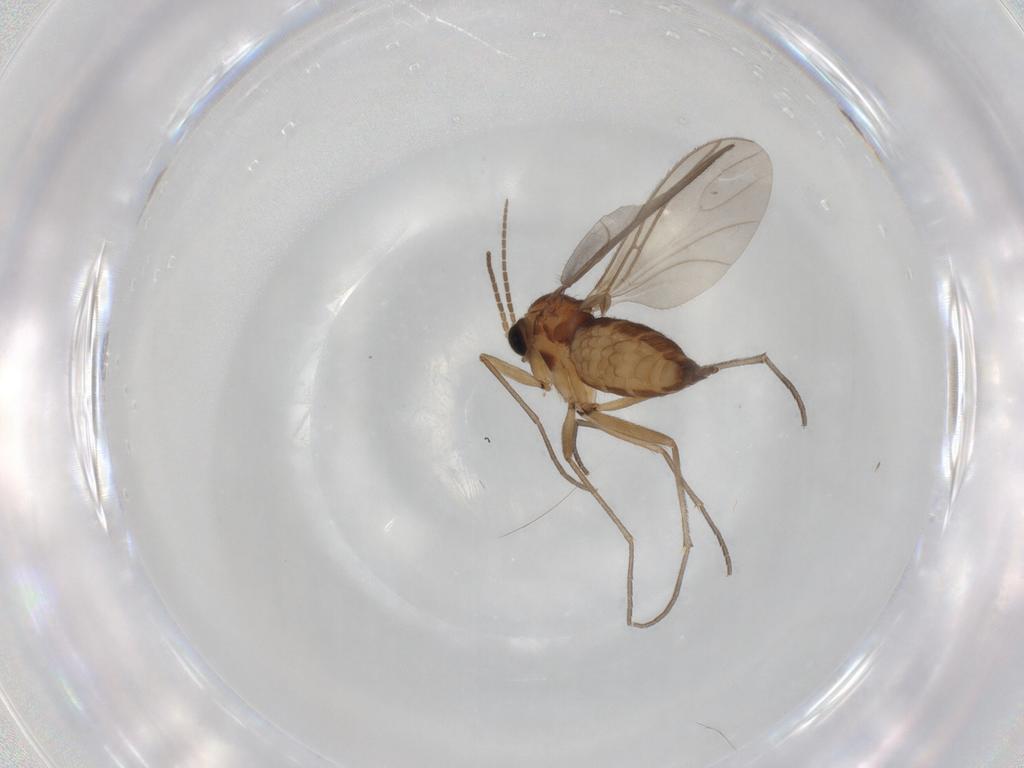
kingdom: Animalia
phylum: Arthropoda
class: Insecta
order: Diptera
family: Sciaridae
